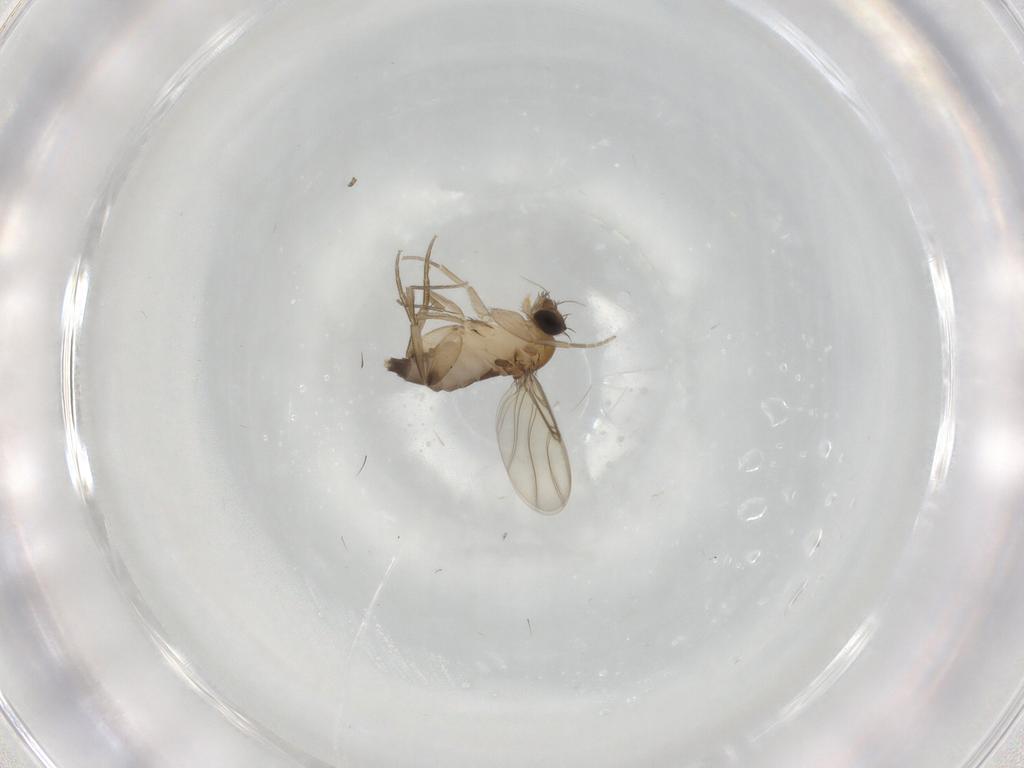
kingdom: Animalia
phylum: Arthropoda
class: Insecta
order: Diptera
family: Phoridae
